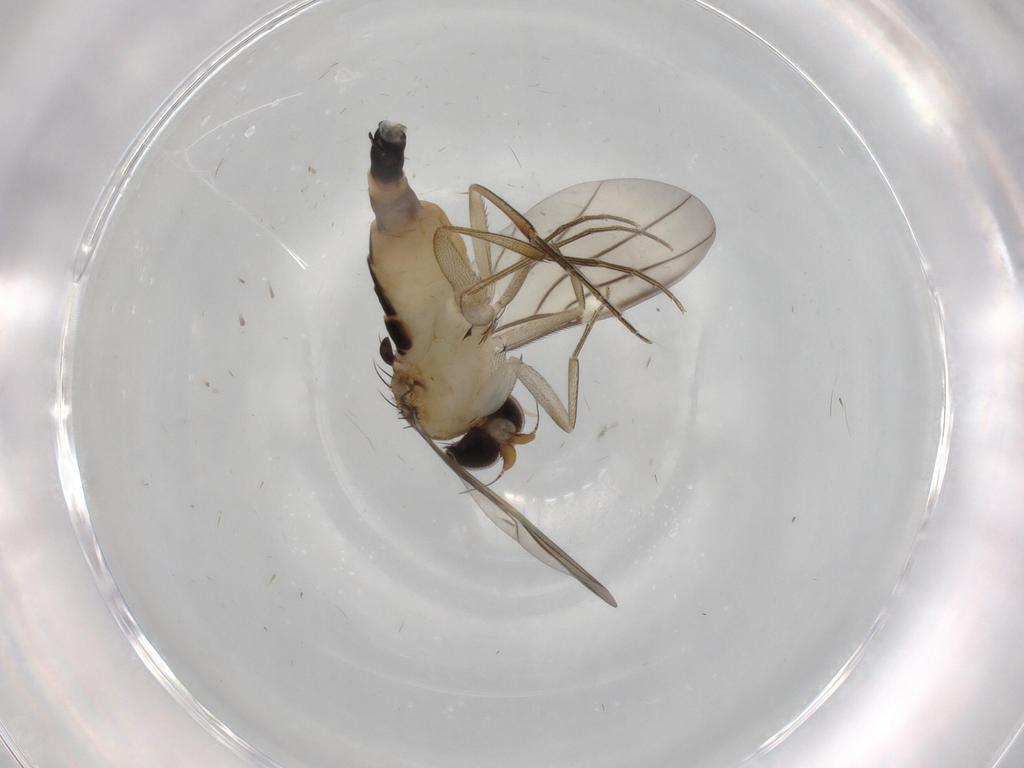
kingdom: Animalia
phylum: Arthropoda
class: Insecta
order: Diptera
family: Phoridae
